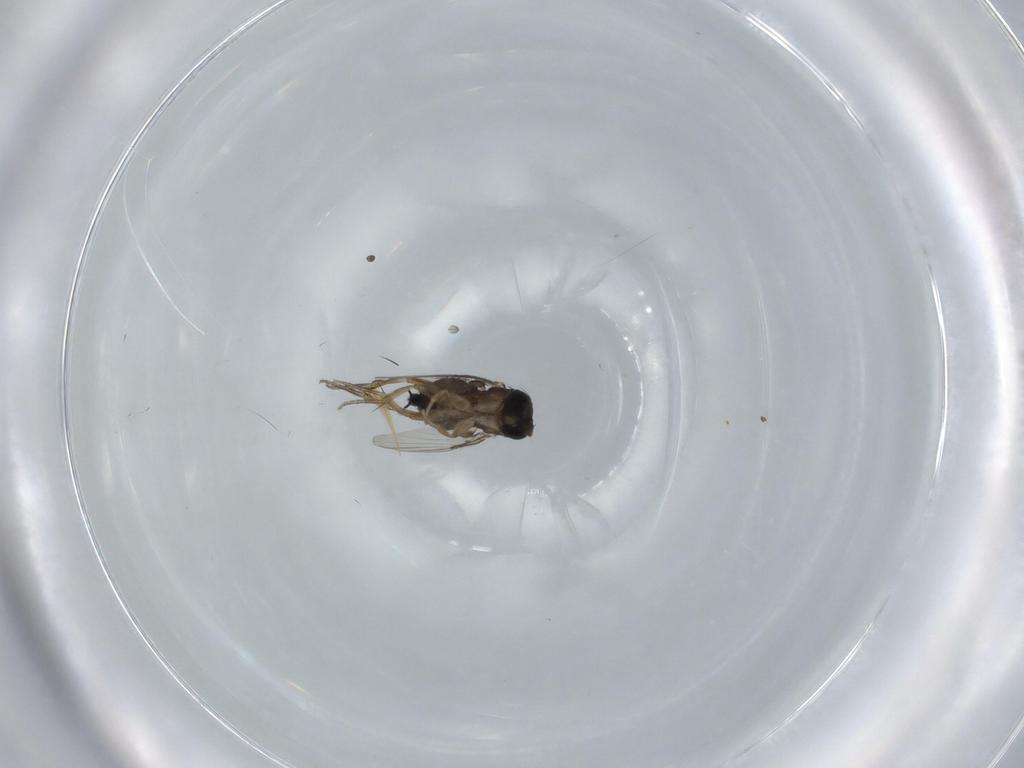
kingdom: Animalia
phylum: Arthropoda
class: Insecta
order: Diptera
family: Phoridae
